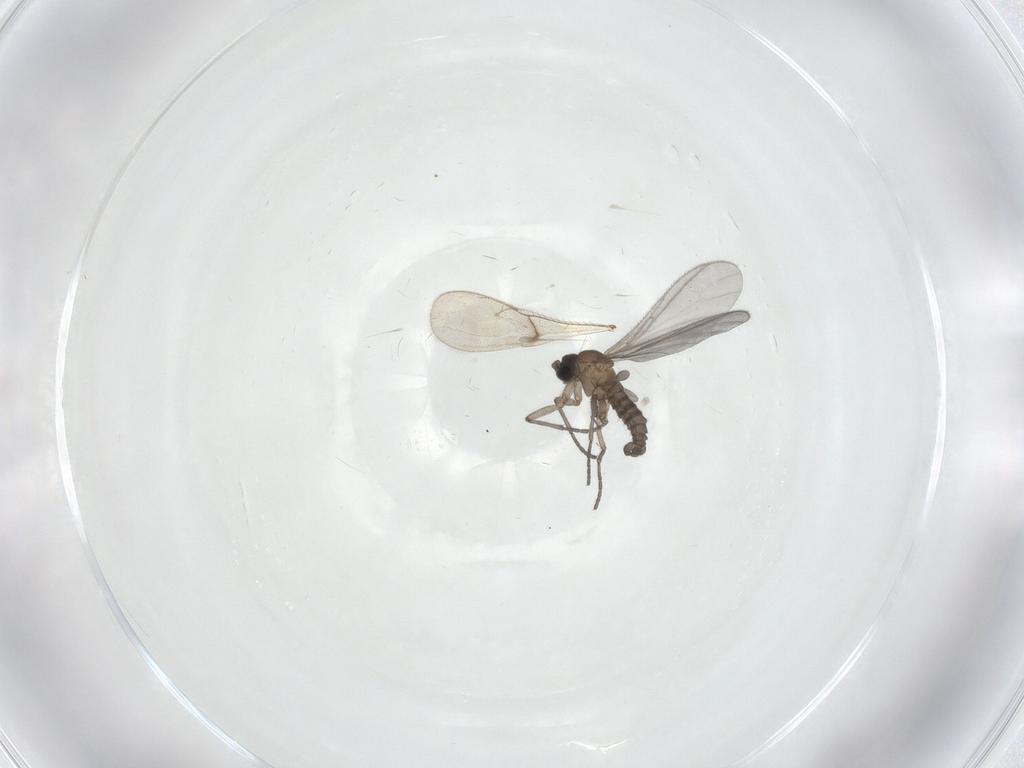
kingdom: Animalia
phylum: Arthropoda
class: Insecta
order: Diptera
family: Sciaridae
